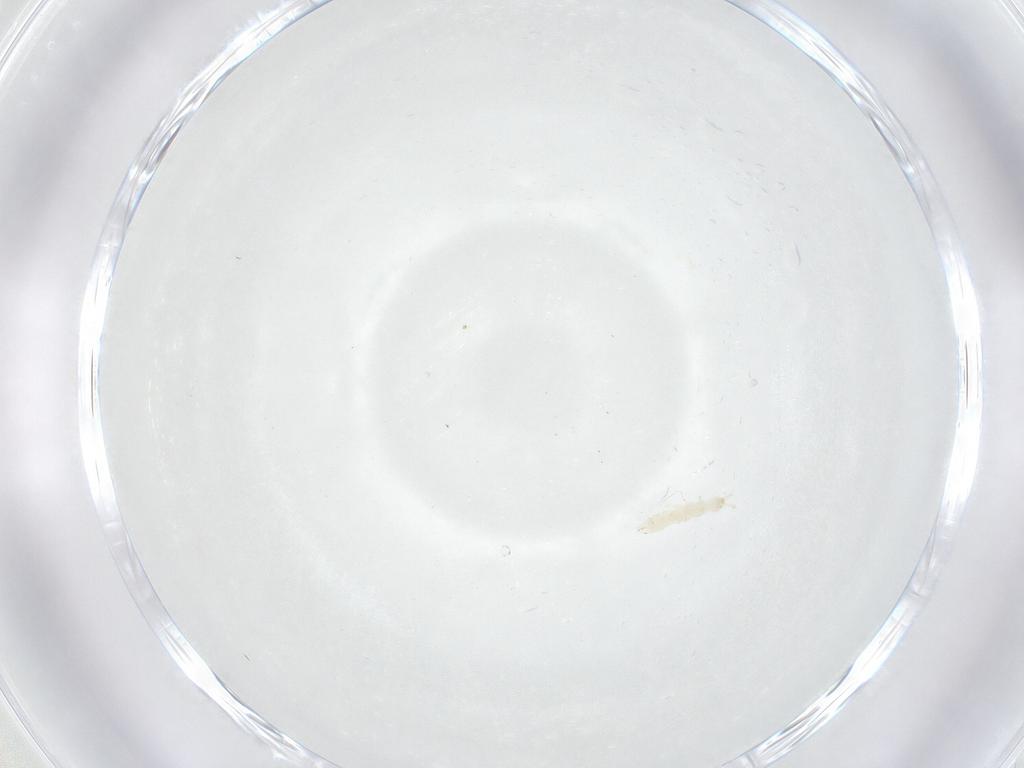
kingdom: Animalia
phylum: Arthropoda
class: Collembola
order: Entomobryomorpha
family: Isotomidae
